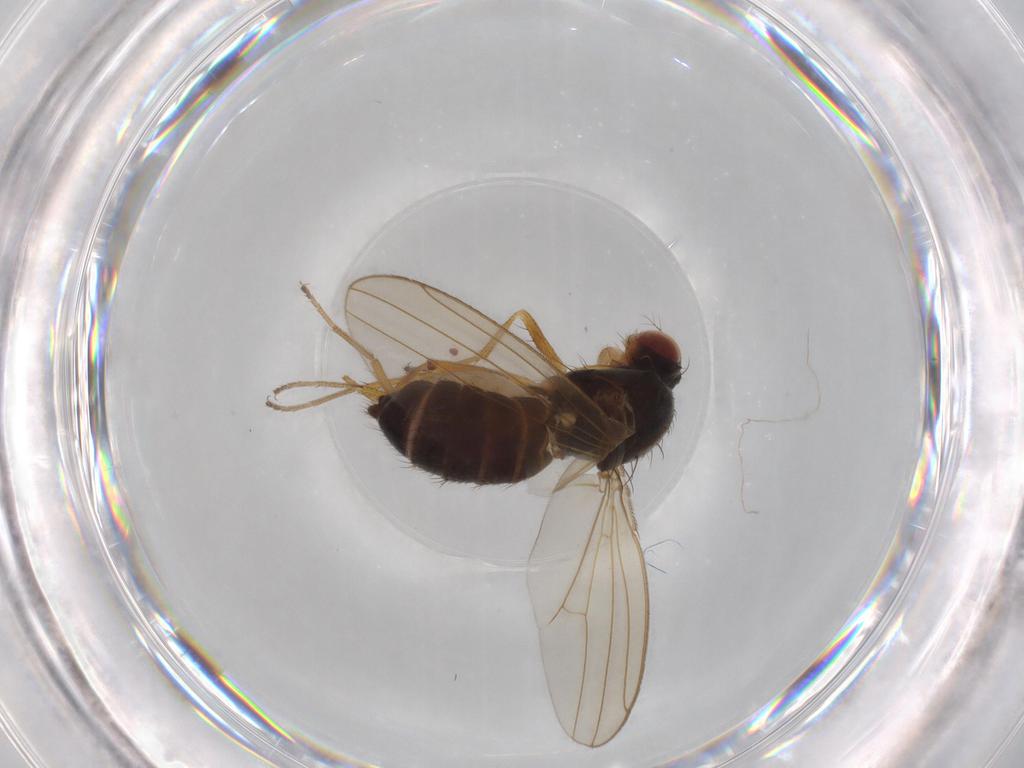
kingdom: Animalia
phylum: Arthropoda
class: Insecta
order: Diptera
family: Drosophilidae
